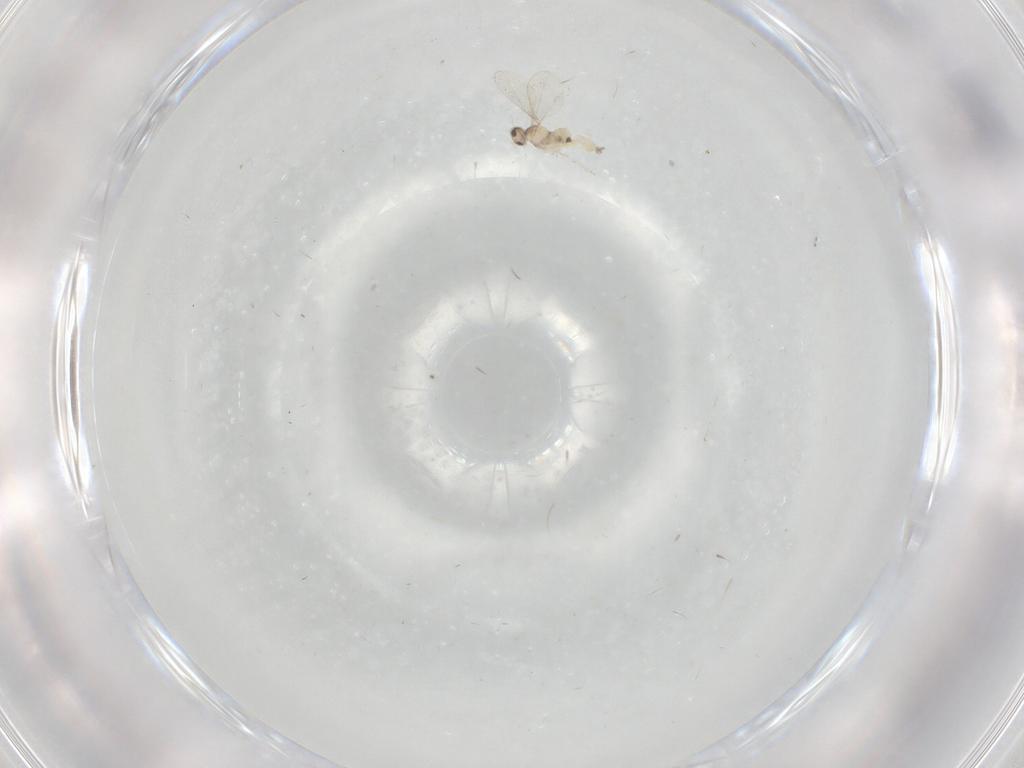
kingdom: Animalia
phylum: Arthropoda
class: Insecta
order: Diptera
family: Cecidomyiidae
